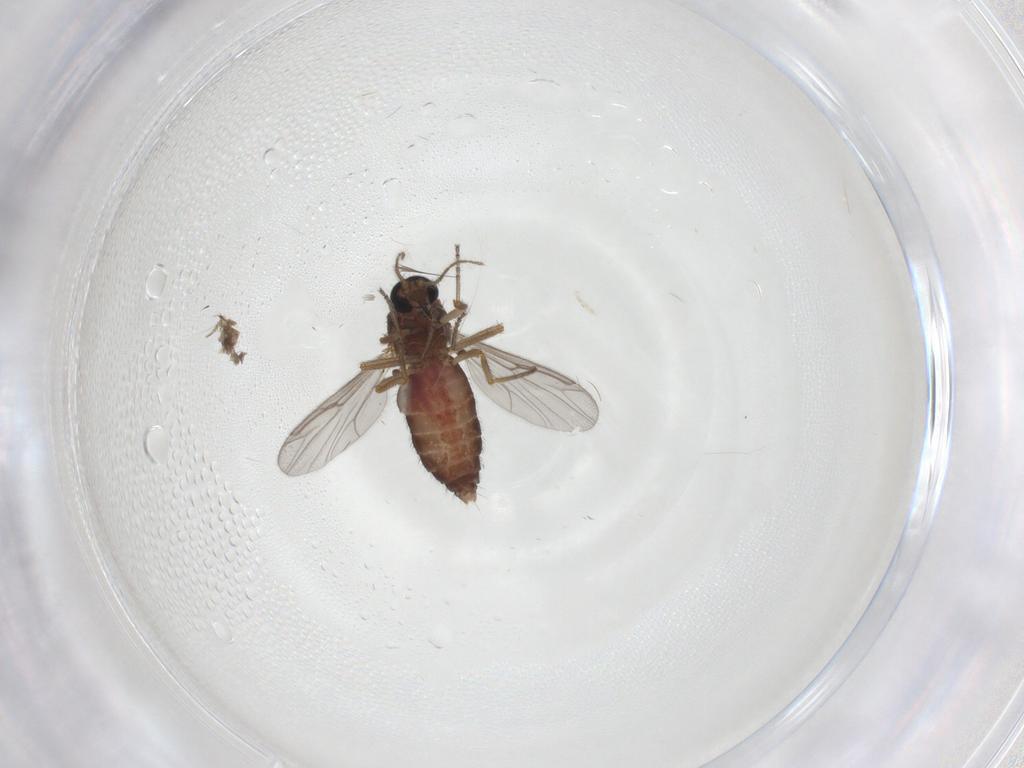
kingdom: Animalia
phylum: Arthropoda
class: Insecta
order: Diptera
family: Ceratopogonidae
